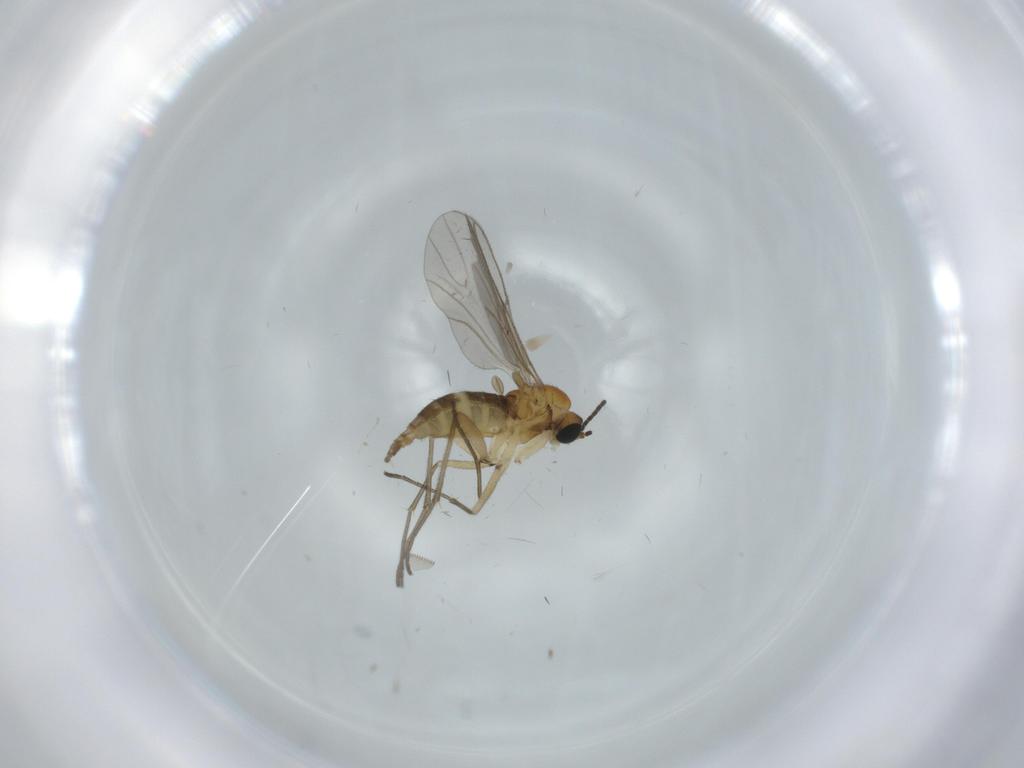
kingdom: Animalia
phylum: Arthropoda
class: Insecta
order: Diptera
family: Sciaridae
